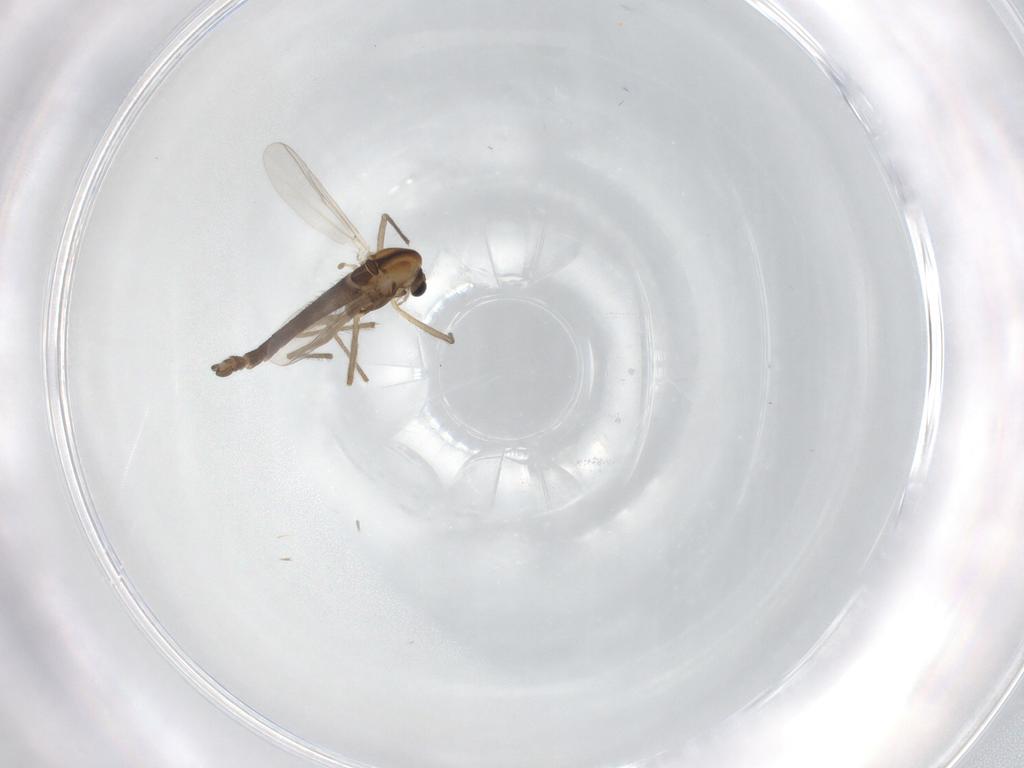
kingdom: Animalia
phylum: Arthropoda
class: Insecta
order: Diptera
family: Chironomidae
